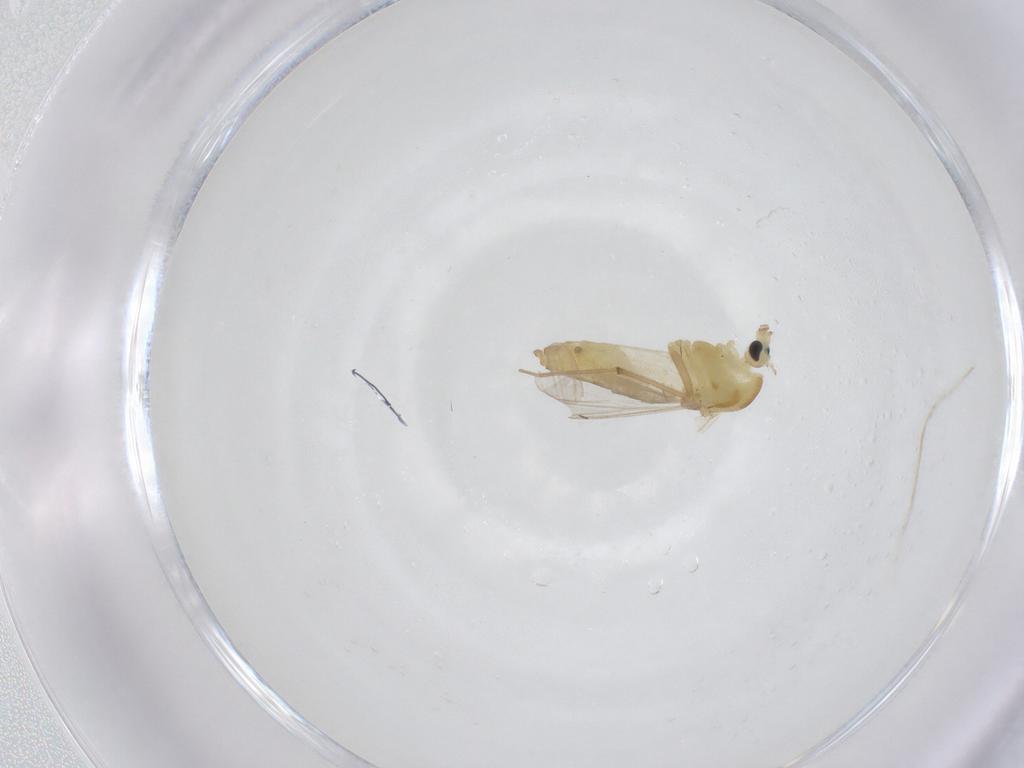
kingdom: Animalia
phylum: Arthropoda
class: Insecta
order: Diptera
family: Chironomidae
